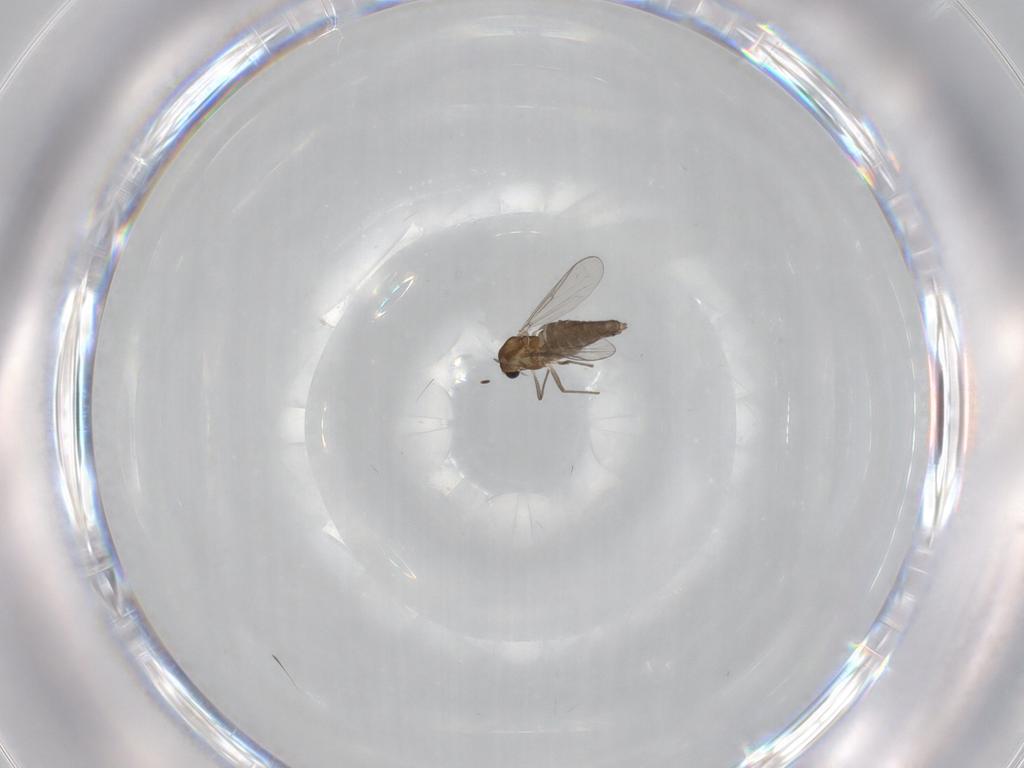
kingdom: Animalia
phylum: Arthropoda
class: Insecta
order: Diptera
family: Chironomidae
